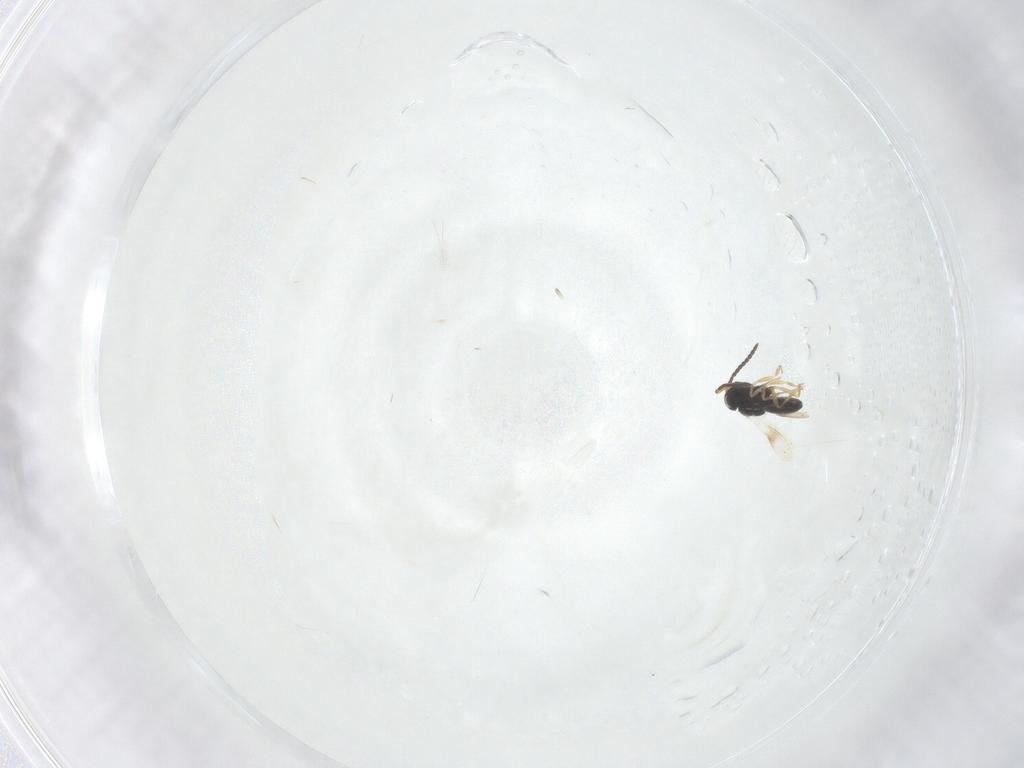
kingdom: Animalia
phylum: Arthropoda
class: Insecta
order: Hymenoptera
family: Scelionidae
